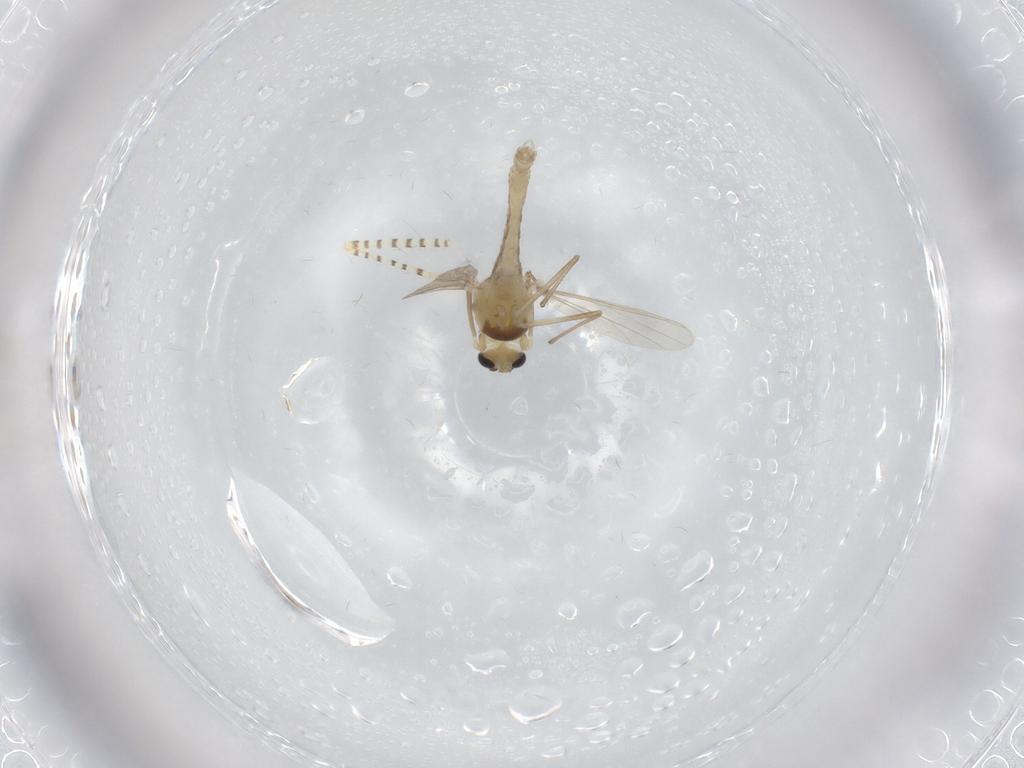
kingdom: Animalia
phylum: Arthropoda
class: Insecta
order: Diptera
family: Chironomidae
